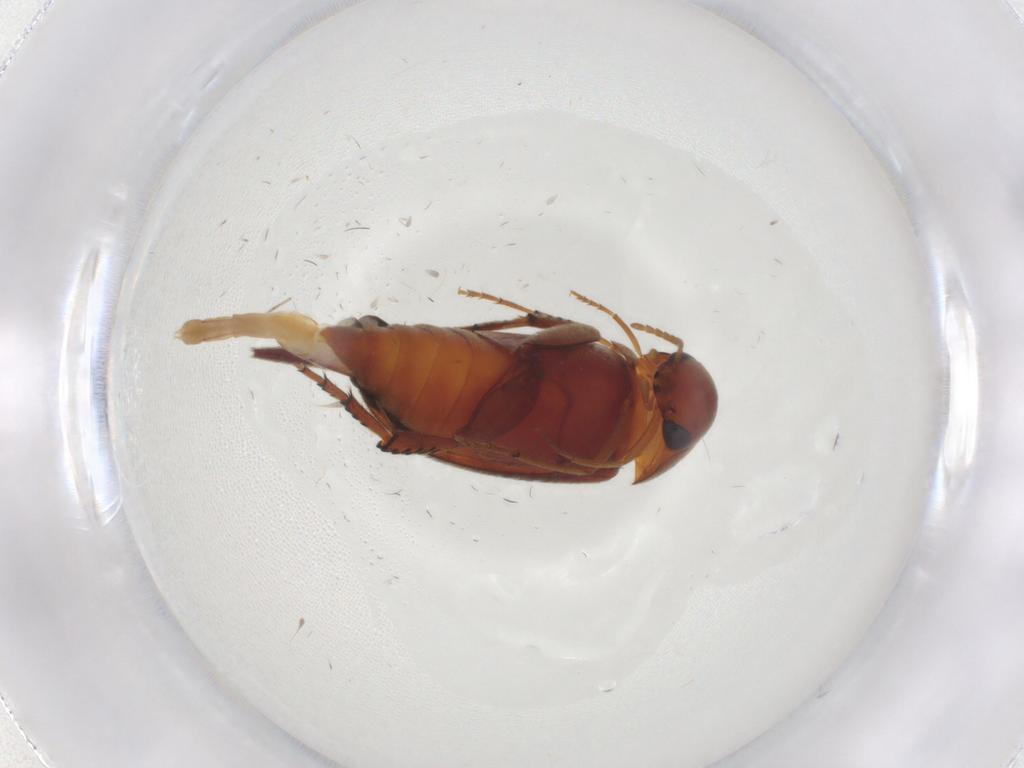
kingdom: Animalia
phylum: Arthropoda
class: Insecta
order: Coleoptera
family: Mordellidae
